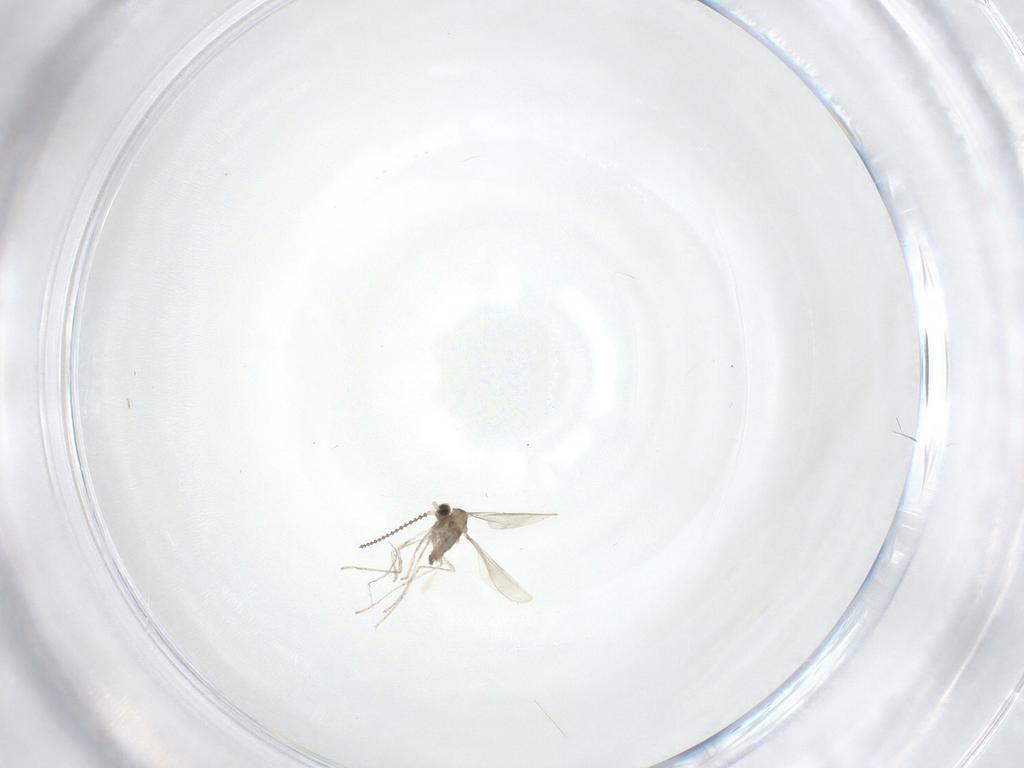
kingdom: Animalia
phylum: Arthropoda
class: Insecta
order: Diptera
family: Cecidomyiidae
